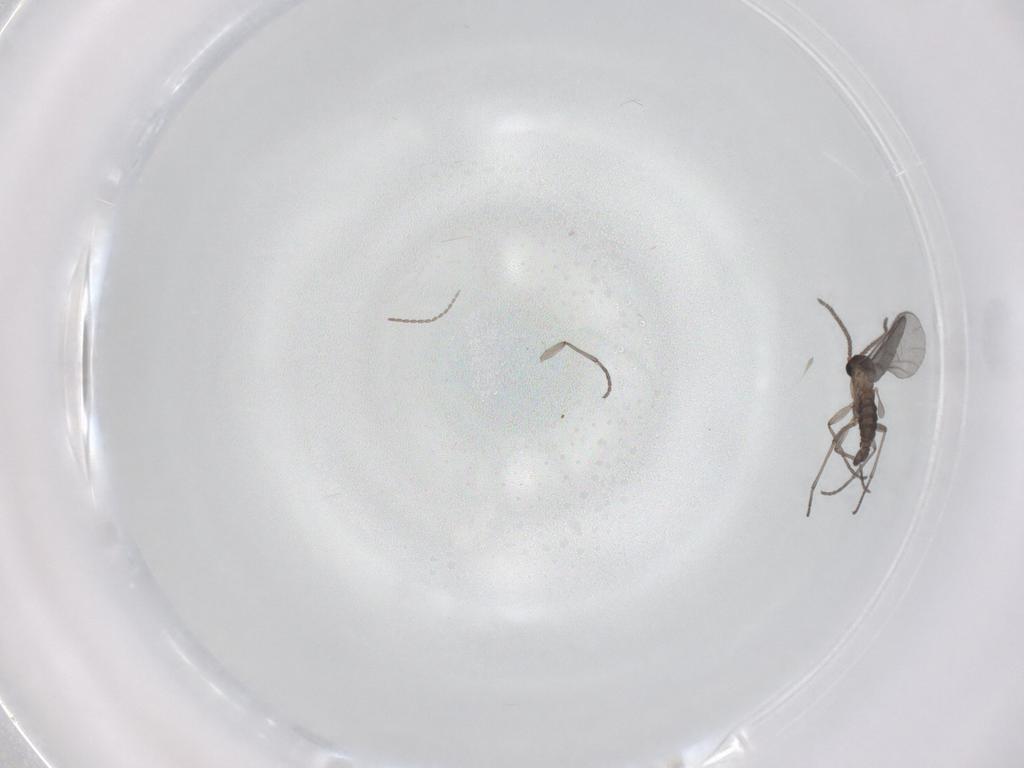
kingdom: Animalia
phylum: Arthropoda
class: Insecta
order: Diptera
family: Sciaridae
